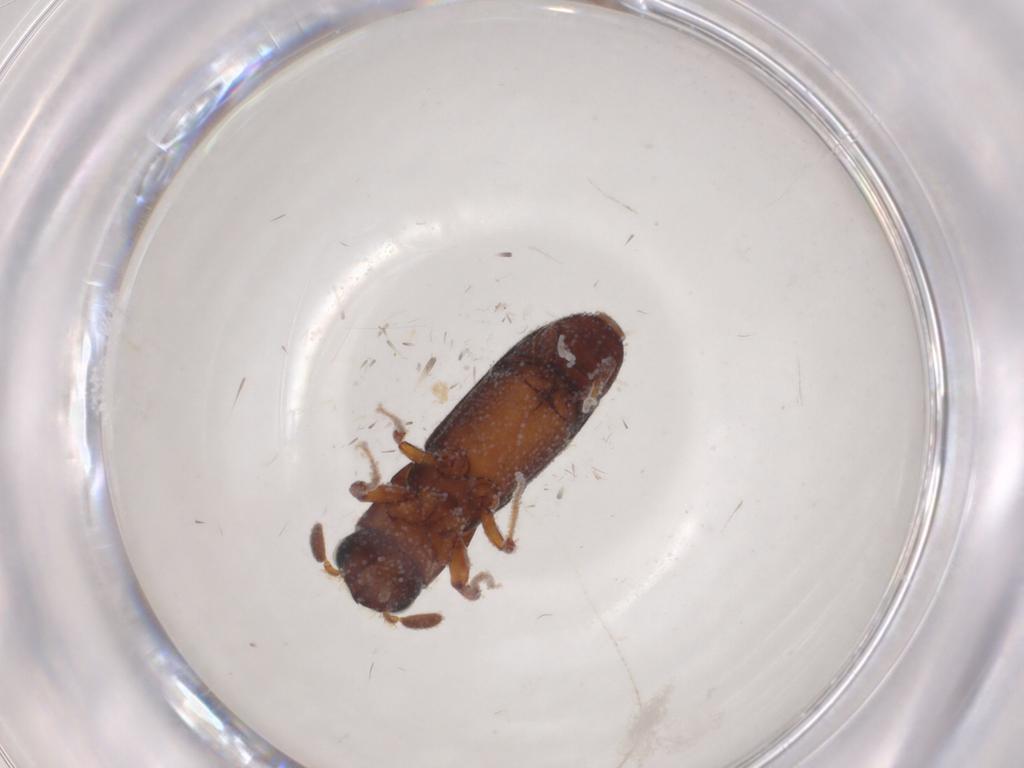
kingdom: Animalia
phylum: Arthropoda
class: Insecta
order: Coleoptera
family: Curculionidae
